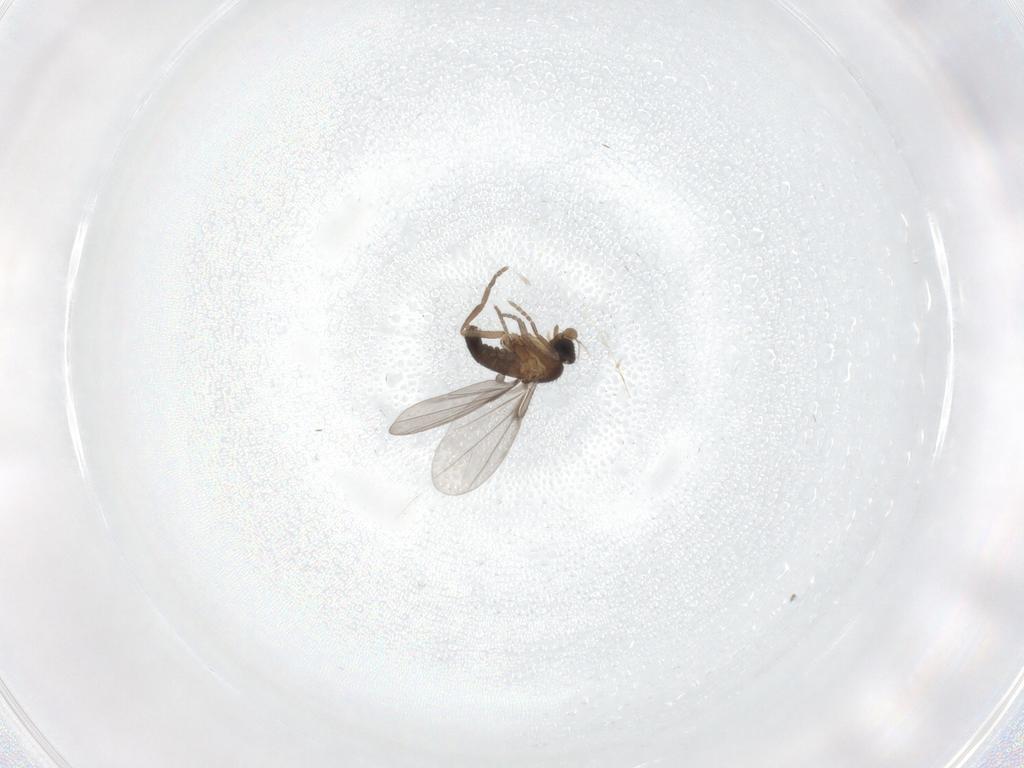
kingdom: Animalia
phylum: Arthropoda
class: Insecta
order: Diptera
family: Phoridae
